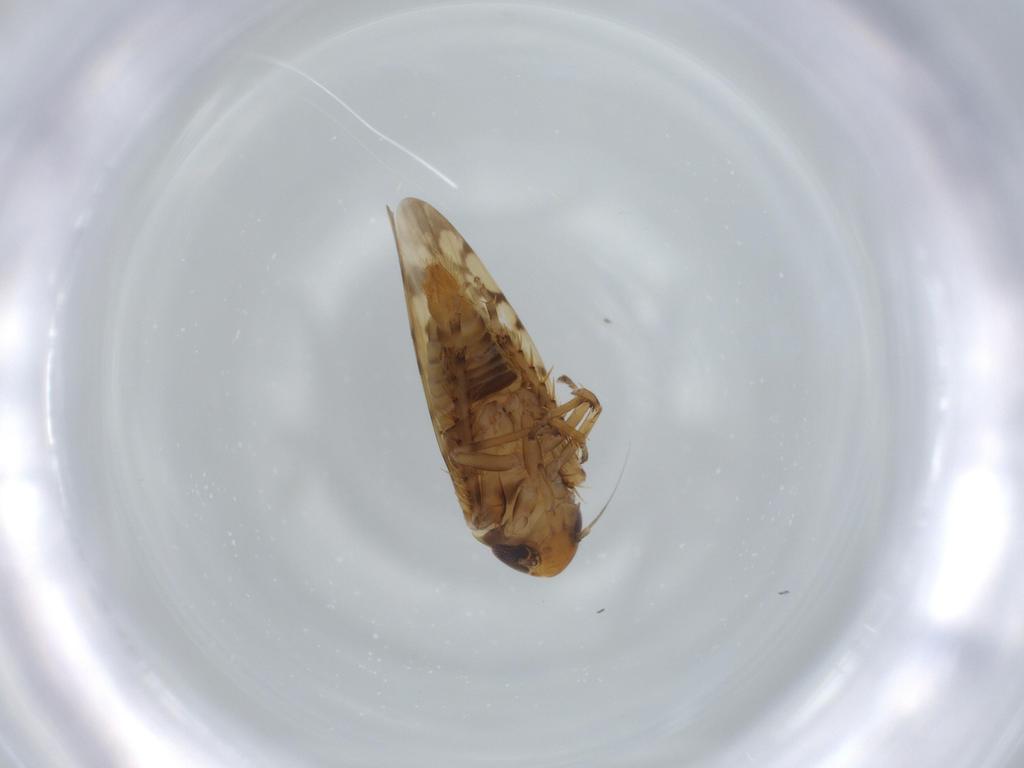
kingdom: Animalia
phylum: Arthropoda
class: Insecta
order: Hemiptera
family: Cicadellidae
